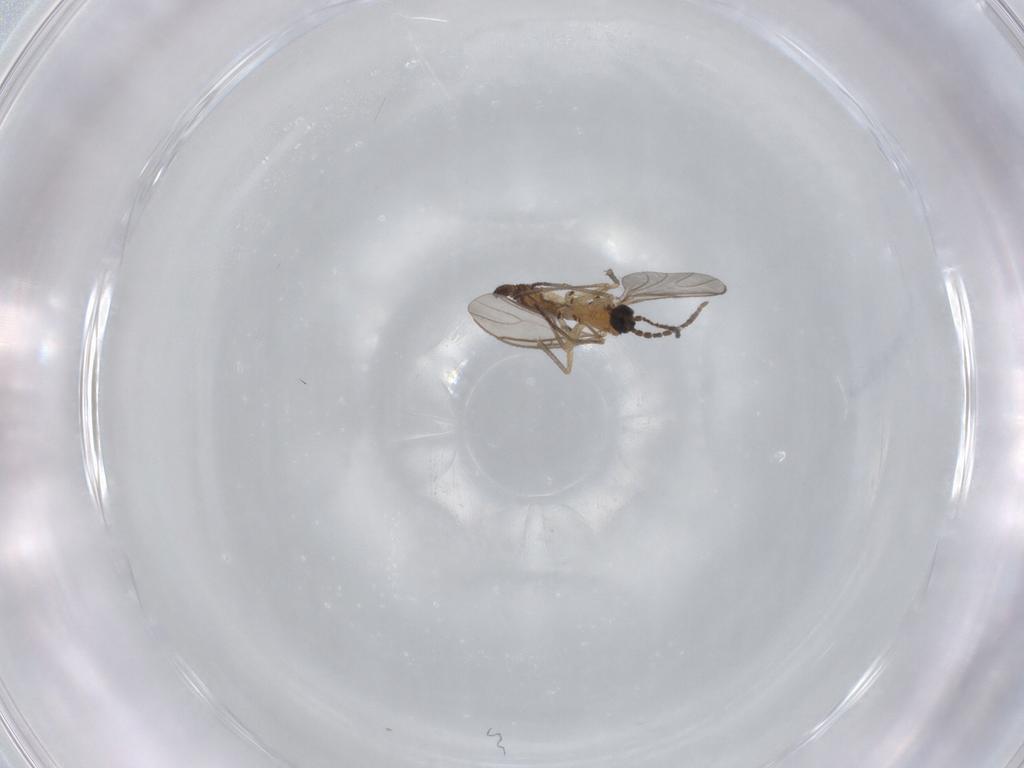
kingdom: Animalia
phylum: Arthropoda
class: Insecta
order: Diptera
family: Sciaridae
